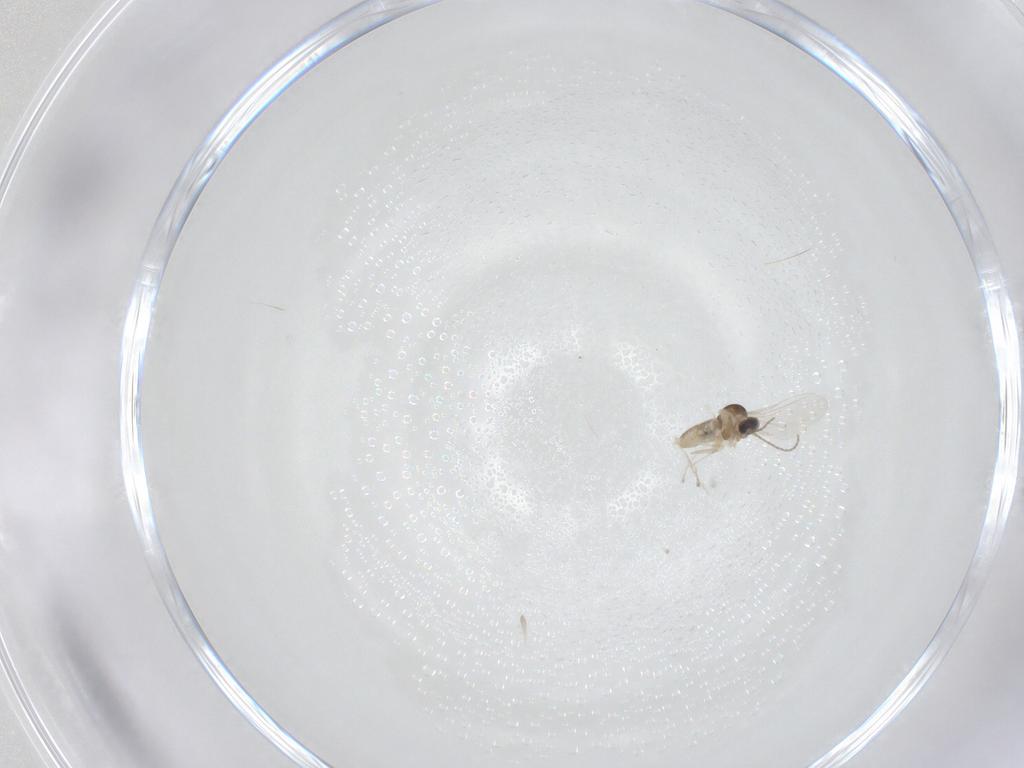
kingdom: Animalia
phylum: Arthropoda
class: Insecta
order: Diptera
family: Cecidomyiidae
